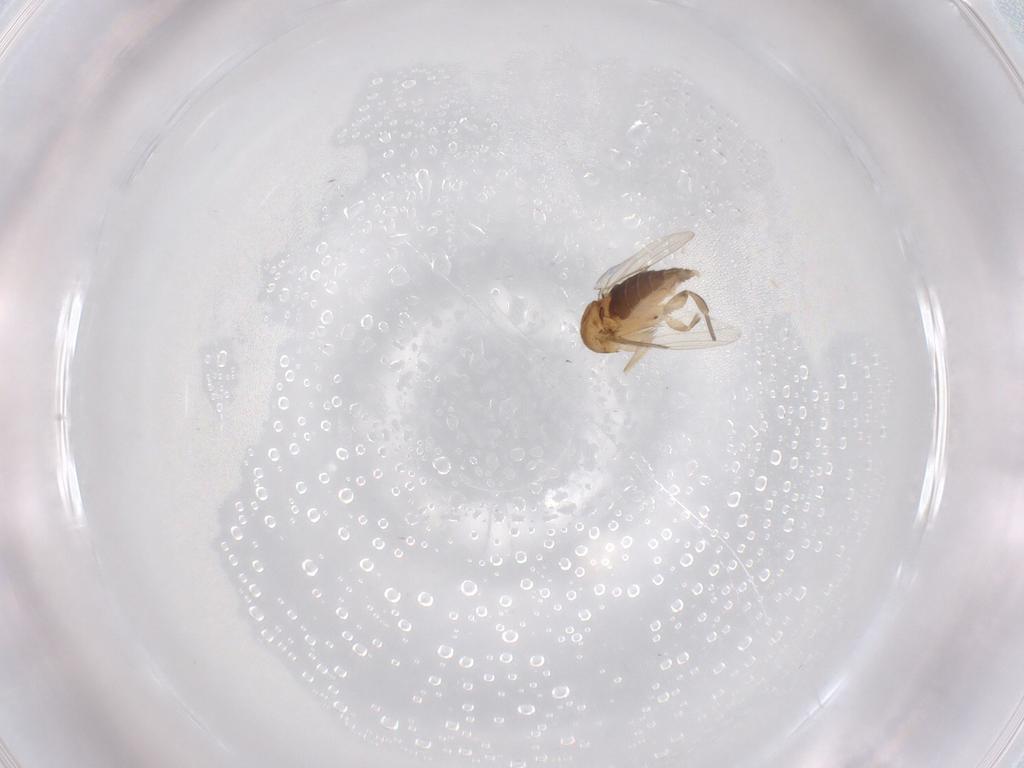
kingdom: Animalia
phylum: Arthropoda
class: Insecta
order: Diptera
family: Phoridae
